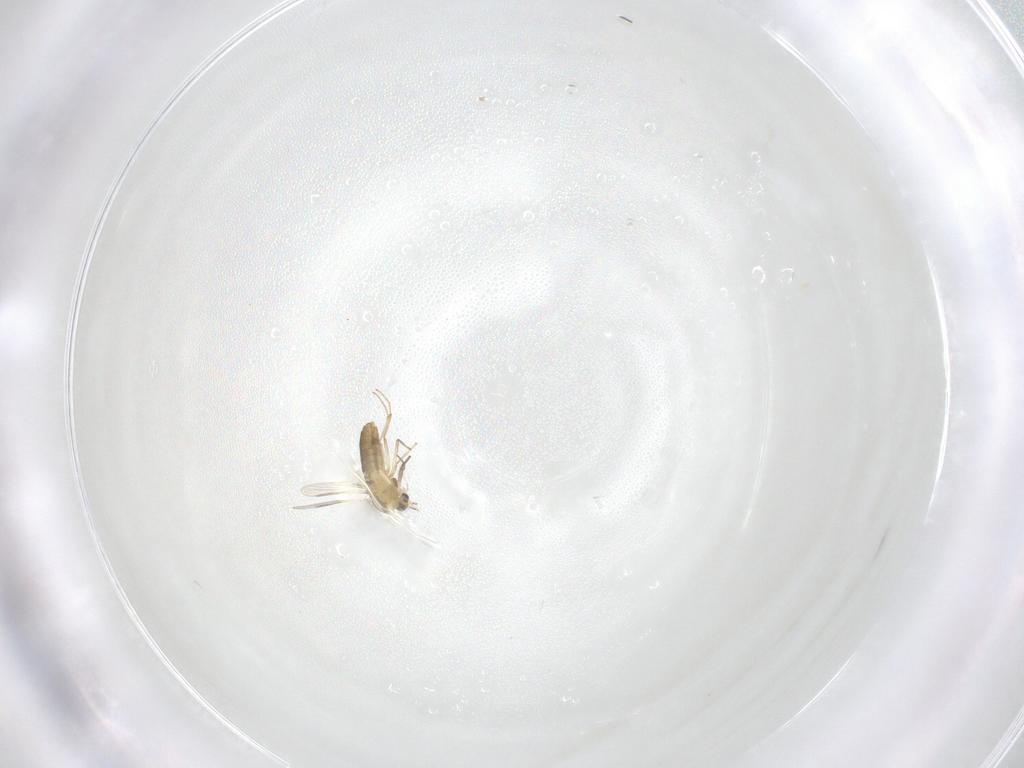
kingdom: Animalia
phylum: Arthropoda
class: Insecta
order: Diptera
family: Chironomidae
